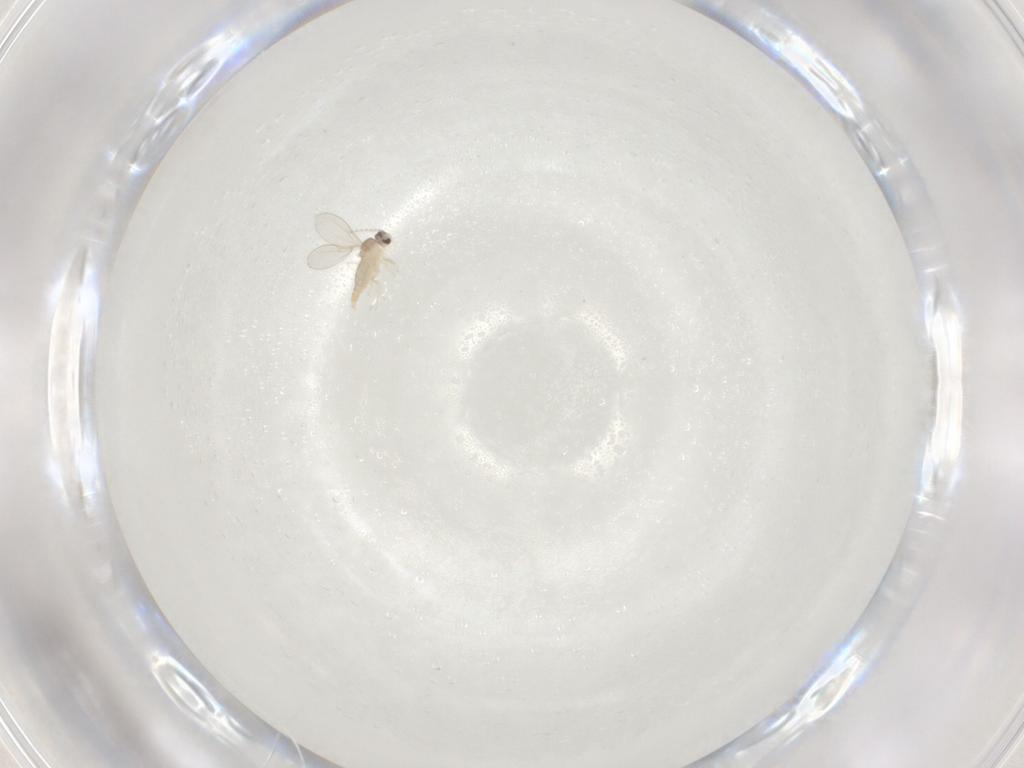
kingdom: Animalia
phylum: Arthropoda
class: Insecta
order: Diptera
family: Cecidomyiidae
